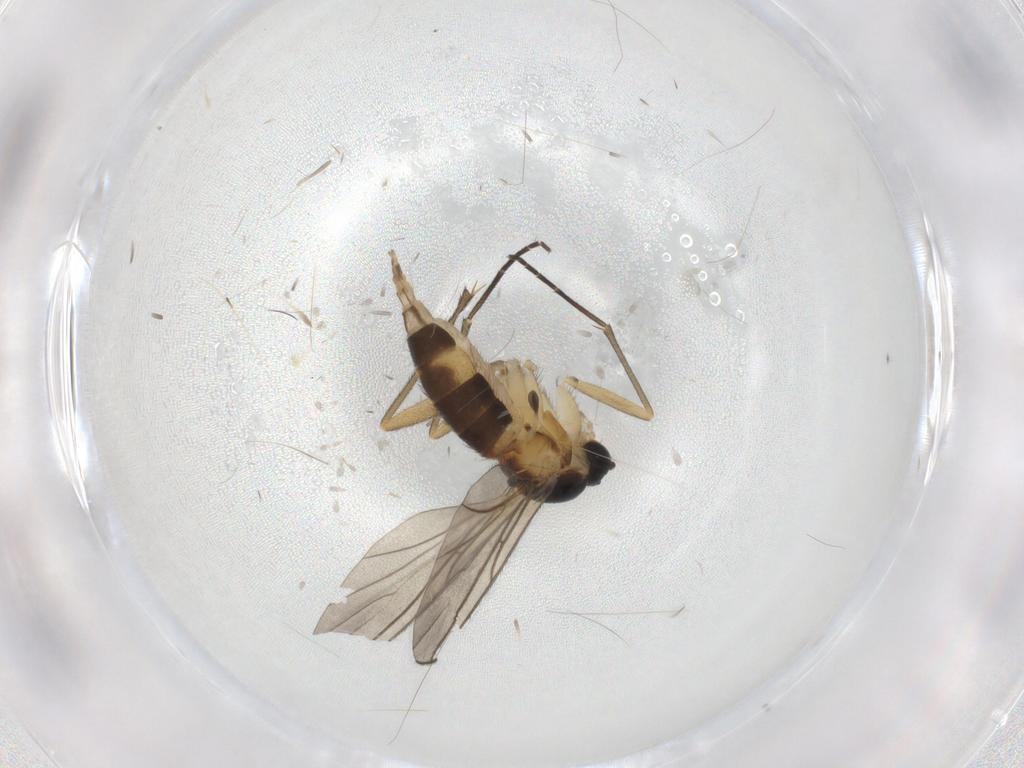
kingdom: Animalia
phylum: Arthropoda
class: Insecta
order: Diptera
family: Sciaridae
